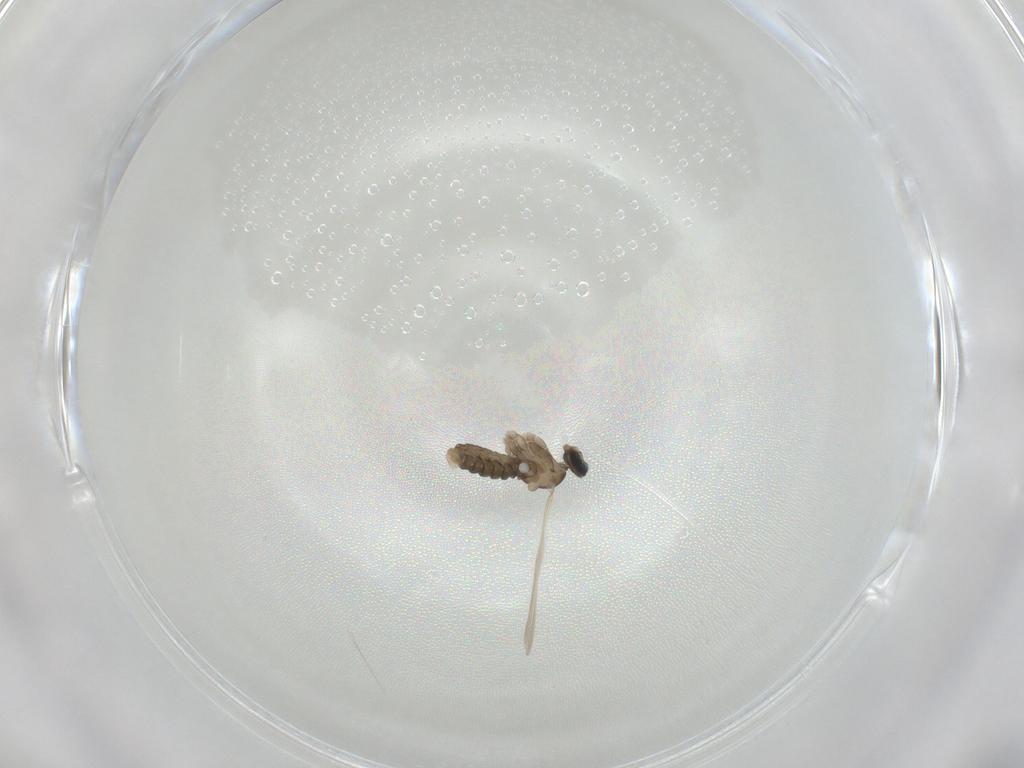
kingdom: Animalia
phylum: Arthropoda
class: Insecta
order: Diptera
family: Cecidomyiidae
